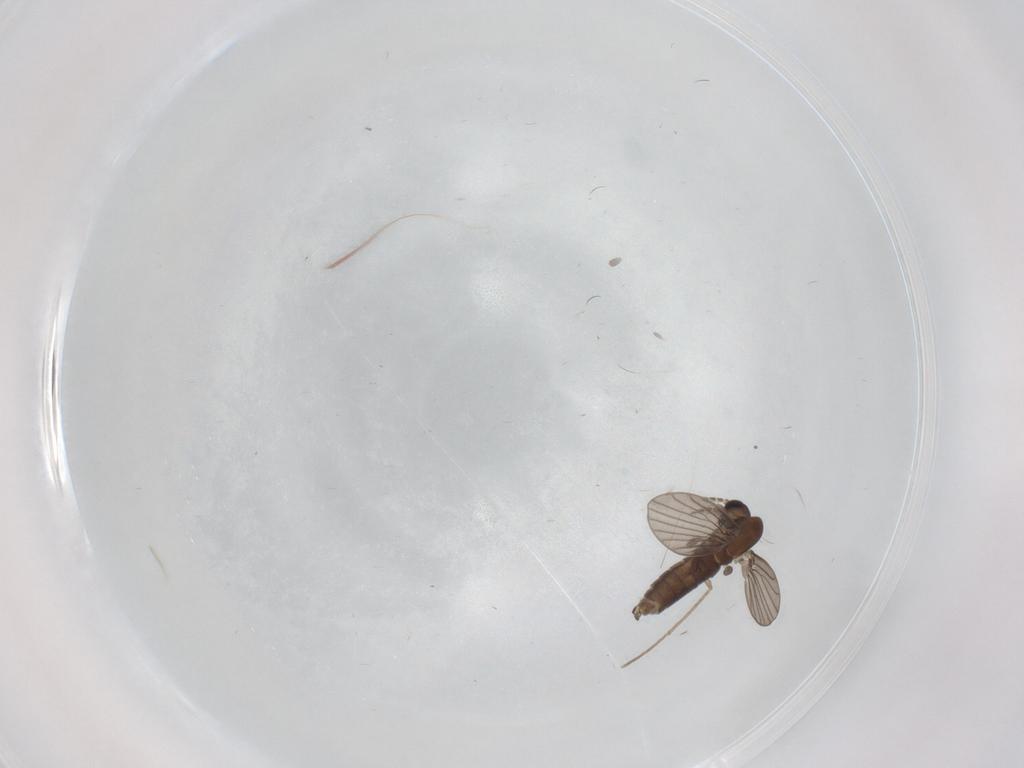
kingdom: Animalia
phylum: Arthropoda
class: Insecta
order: Diptera
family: Psychodidae
